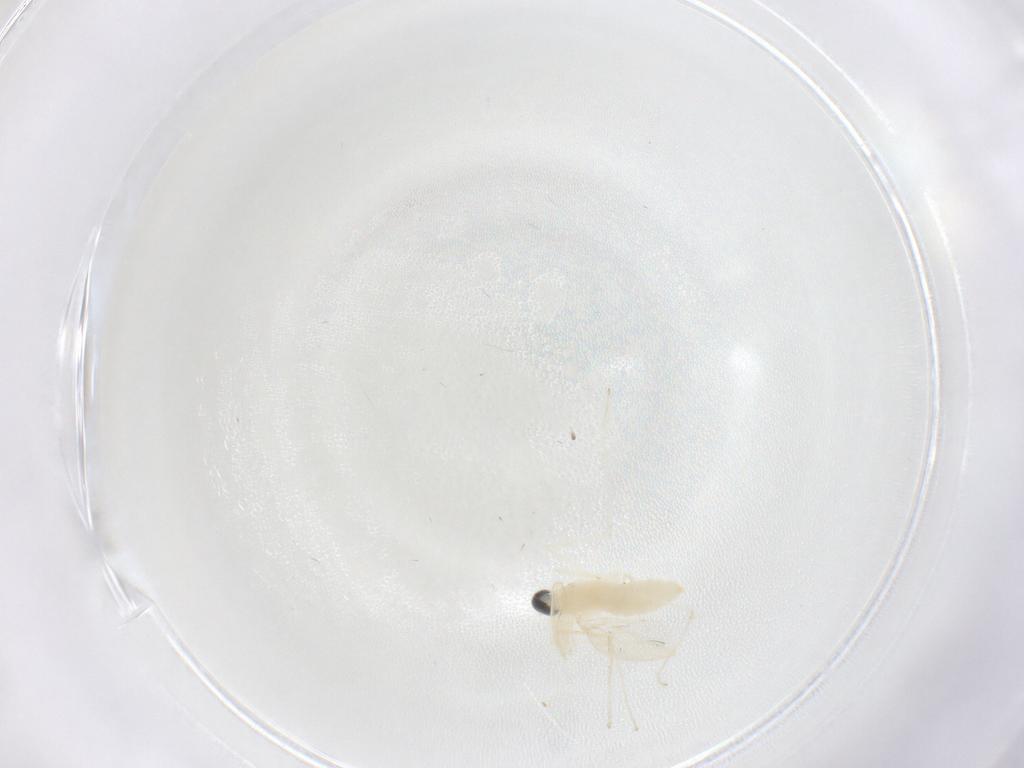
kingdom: Animalia
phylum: Arthropoda
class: Insecta
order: Diptera
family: Cecidomyiidae
